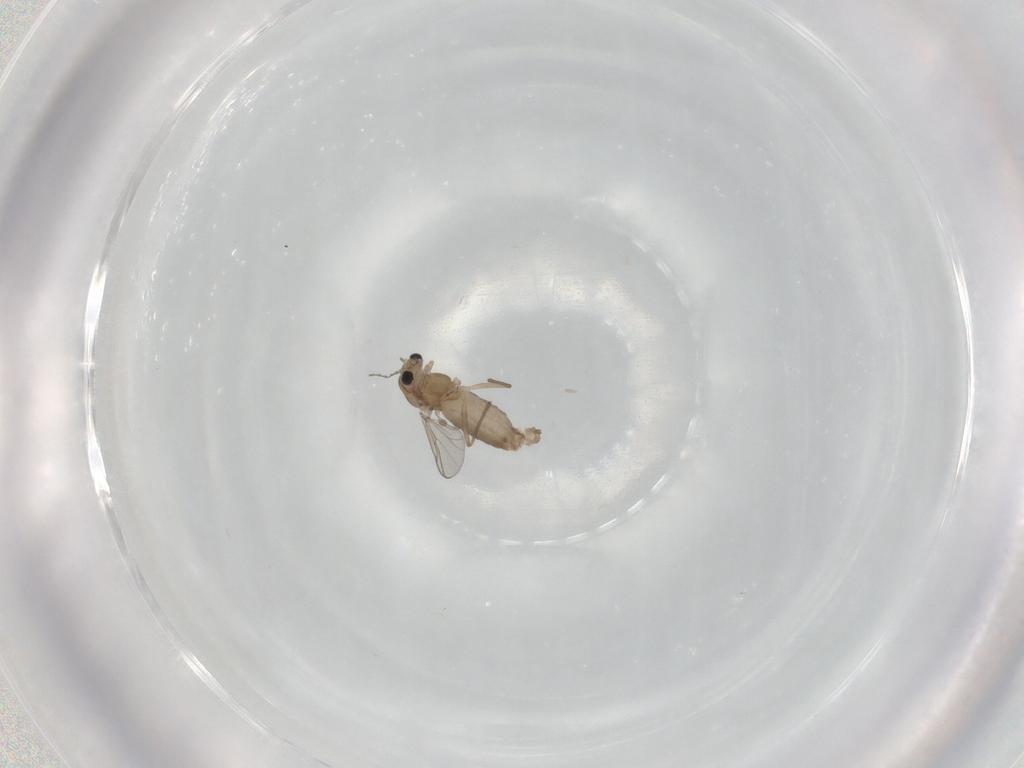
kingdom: Animalia
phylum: Arthropoda
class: Insecta
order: Diptera
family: Chironomidae
